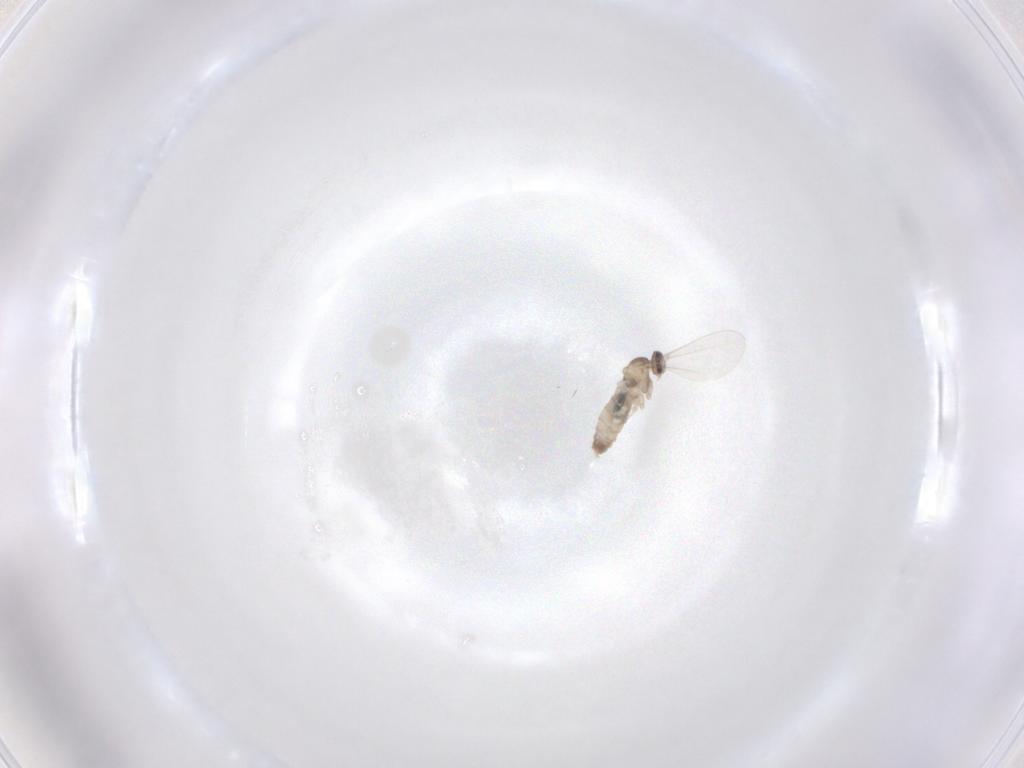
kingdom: Animalia
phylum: Arthropoda
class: Insecta
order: Diptera
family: Cecidomyiidae
